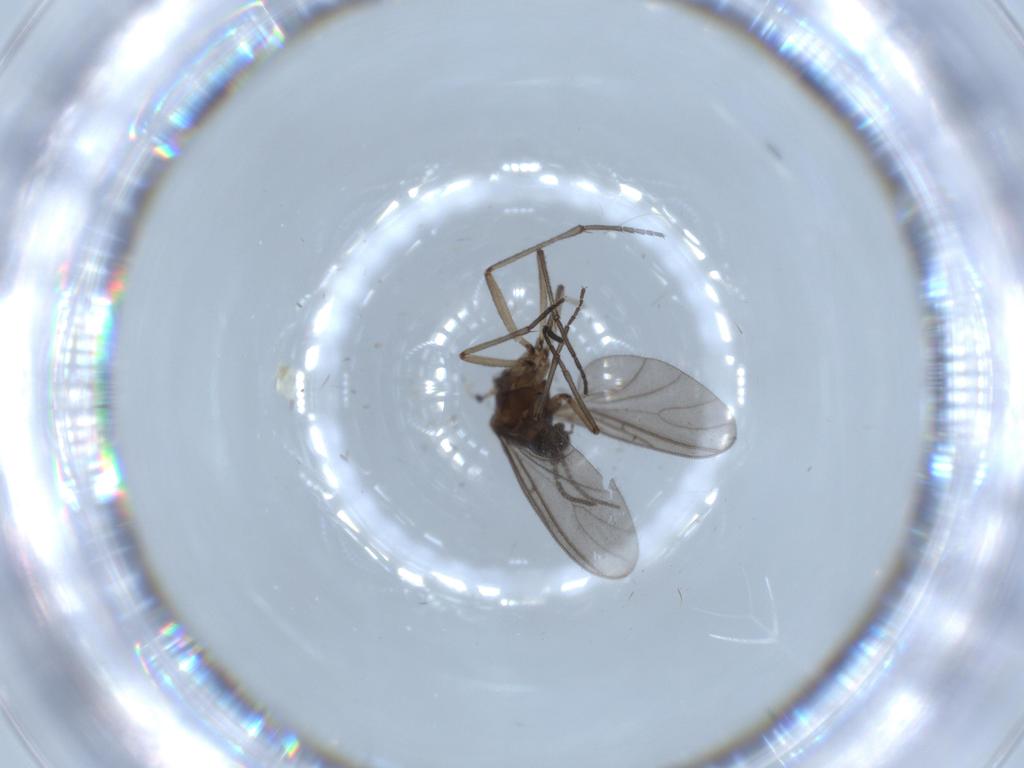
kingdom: Animalia
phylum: Arthropoda
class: Insecta
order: Diptera
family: Sciaridae
